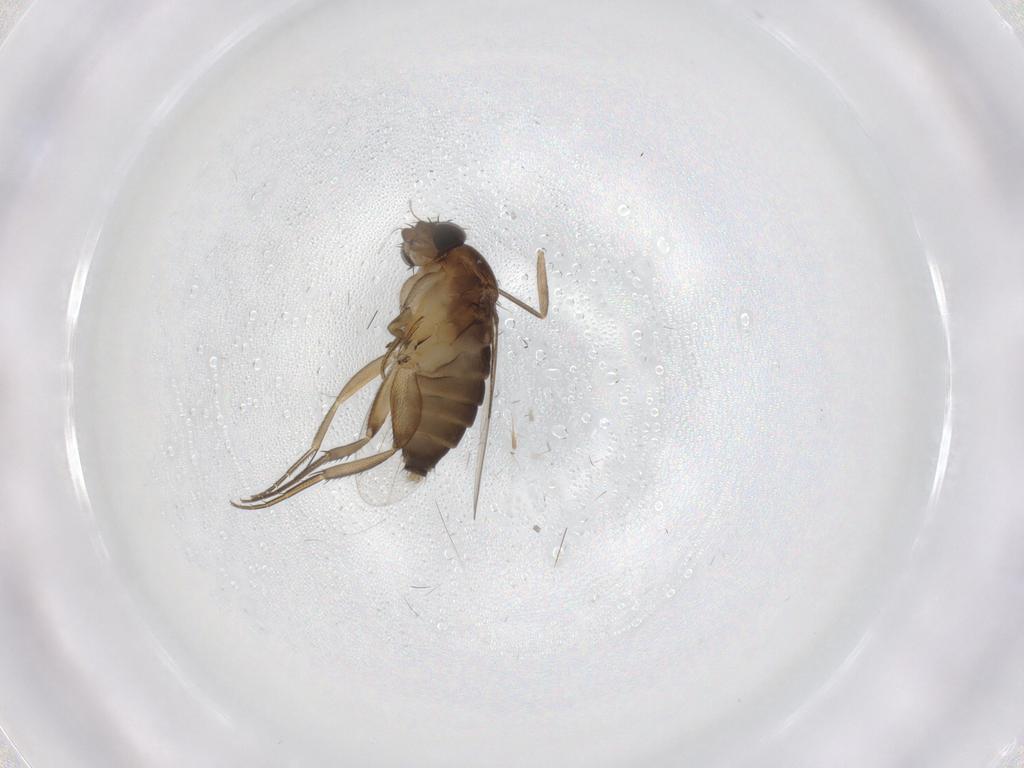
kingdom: Animalia
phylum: Arthropoda
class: Insecta
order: Diptera
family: Phoridae
